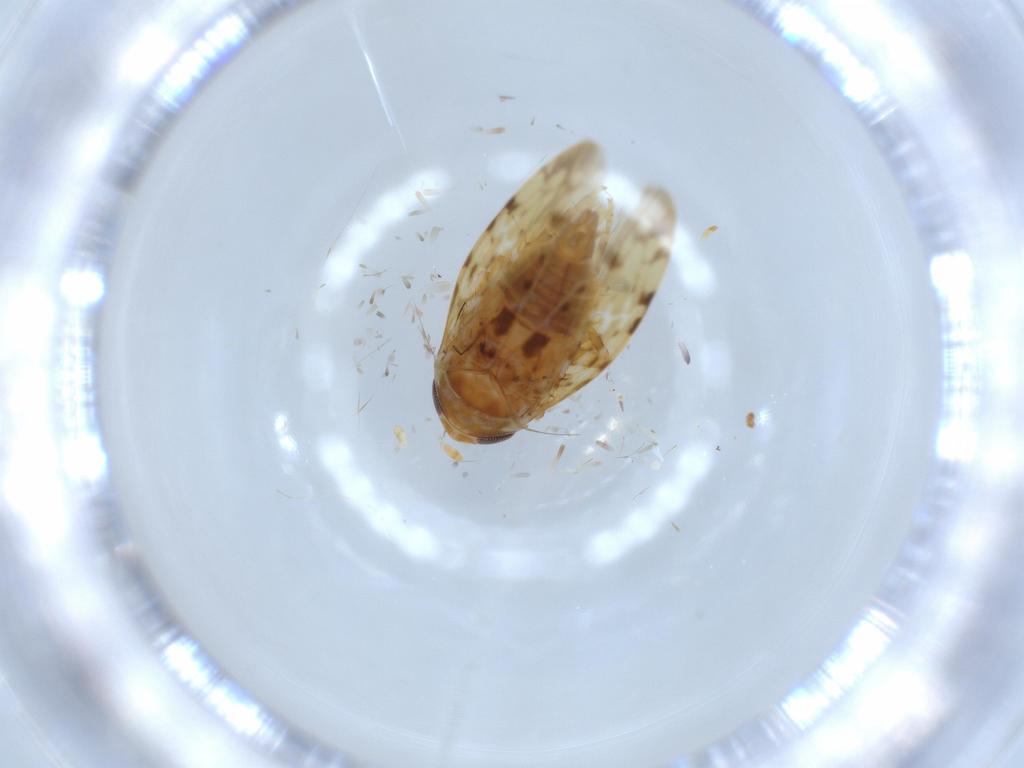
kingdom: Animalia
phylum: Arthropoda
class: Insecta
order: Hemiptera
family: Cicadellidae
